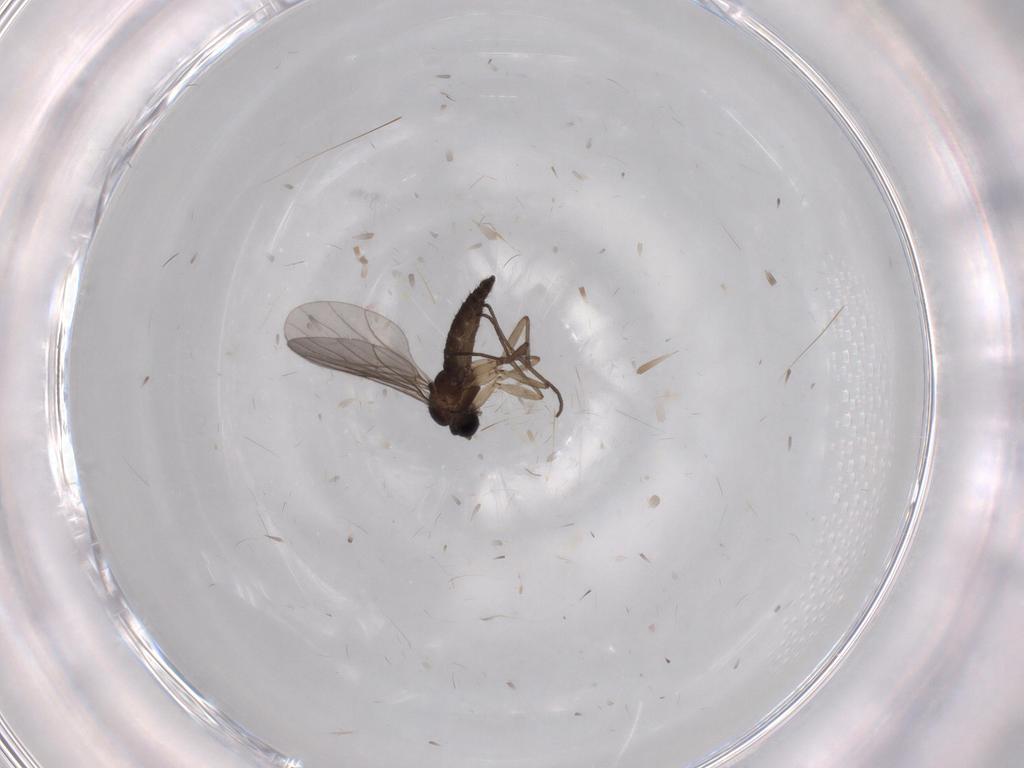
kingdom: Animalia
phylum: Arthropoda
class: Insecta
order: Diptera
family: Sciaridae
